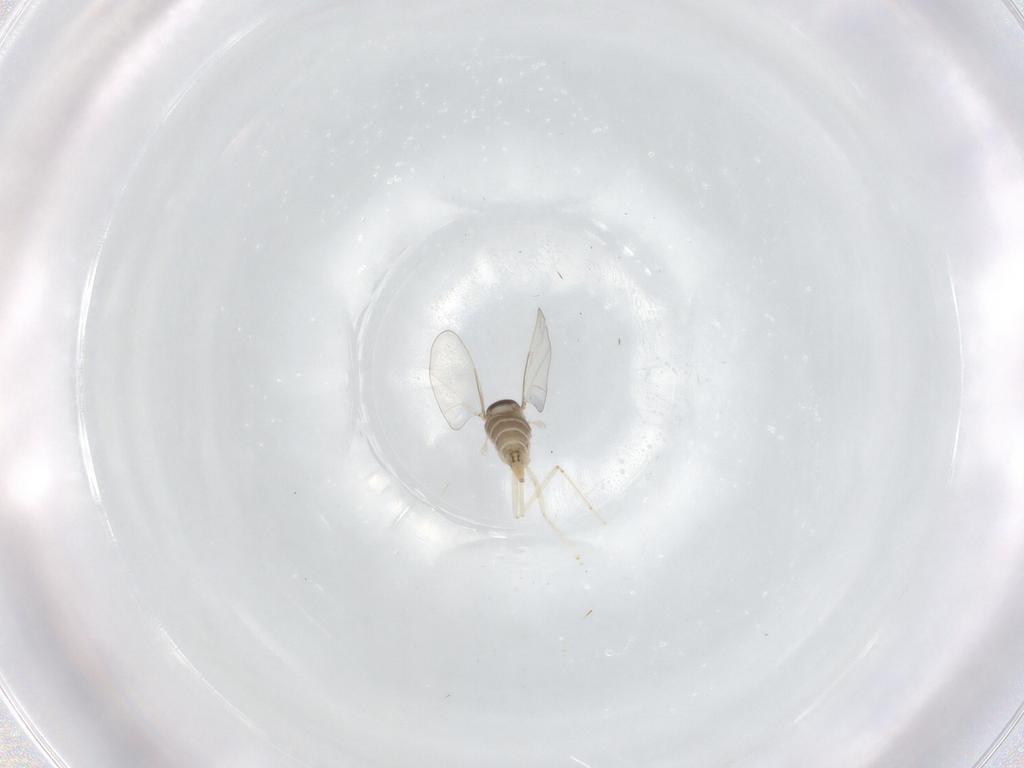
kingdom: Animalia
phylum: Arthropoda
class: Insecta
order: Diptera
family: Cecidomyiidae
